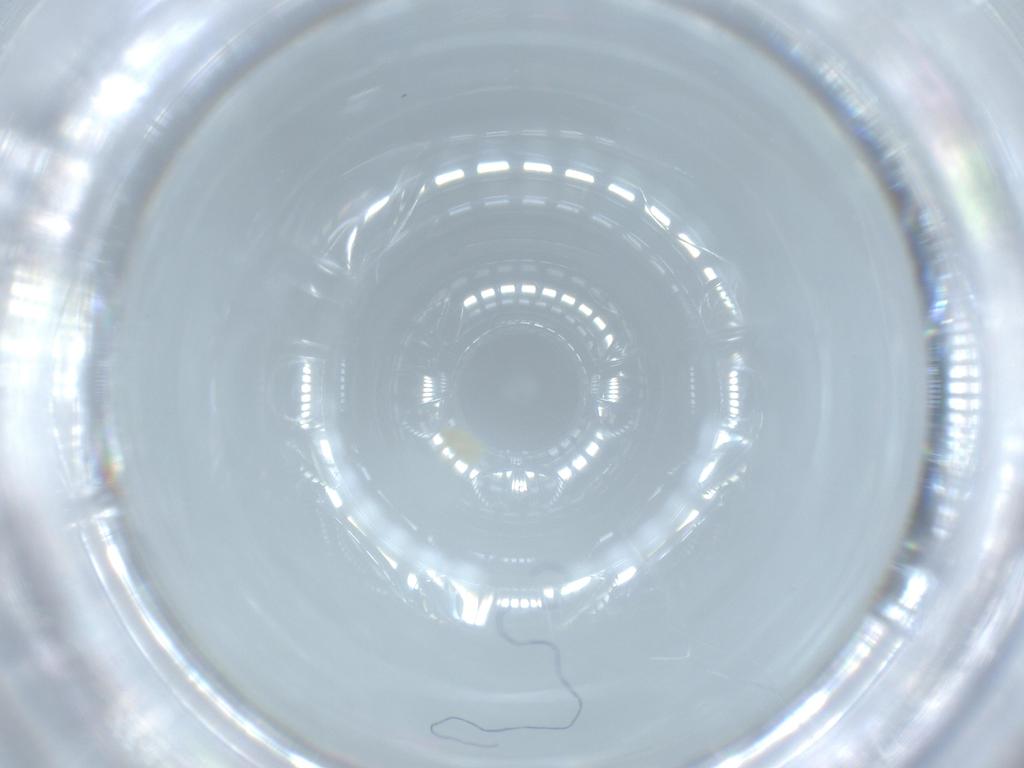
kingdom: Animalia
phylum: Arthropoda
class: Arachnida
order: Trombidiformes
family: Erythraeidae
